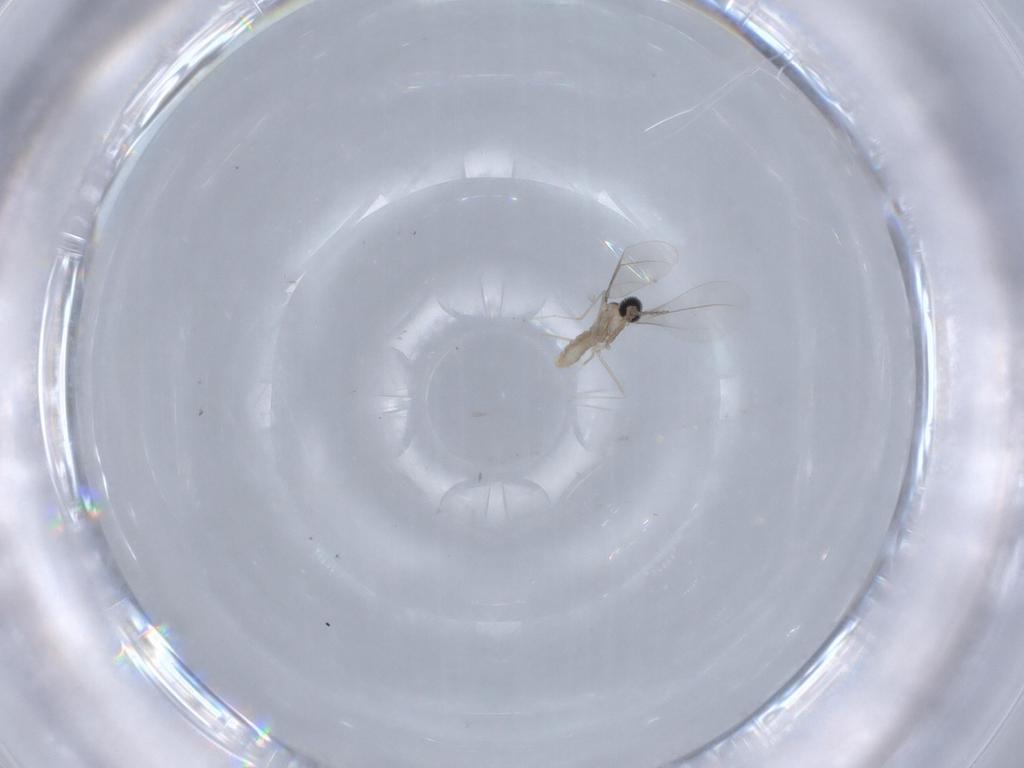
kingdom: Animalia
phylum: Arthropoda
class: Insecta
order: Diptera
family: Cecidomyiidae
